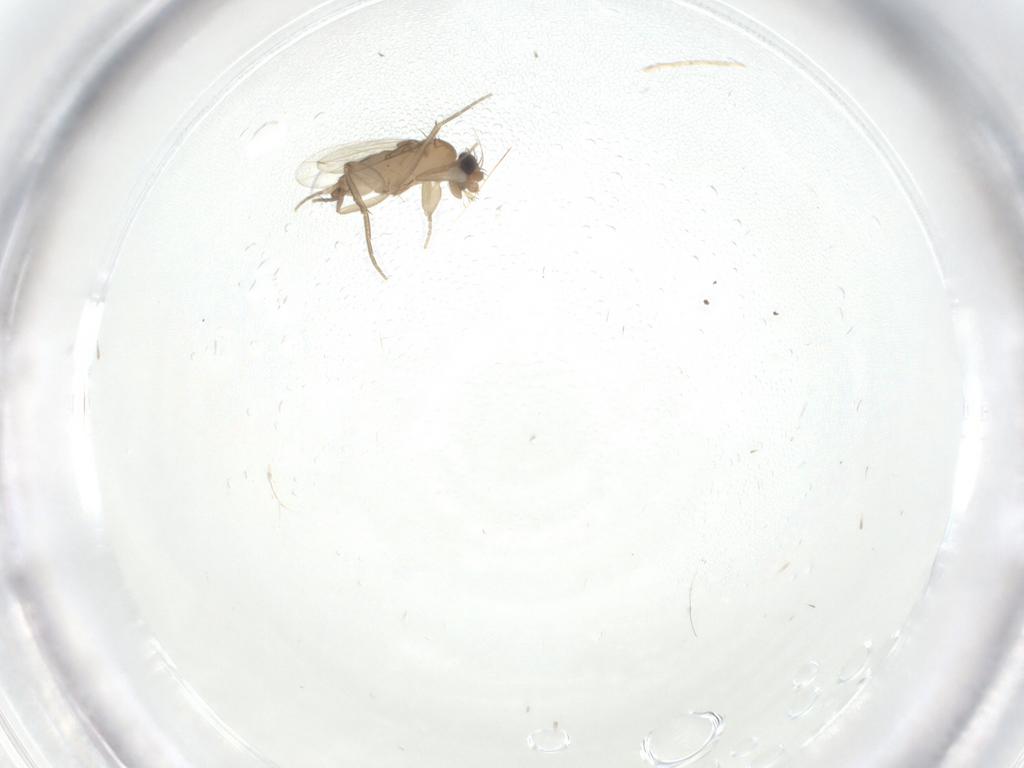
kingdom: Animalia
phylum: Arthropoda
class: Insecta
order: Diptera
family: Phoridae
